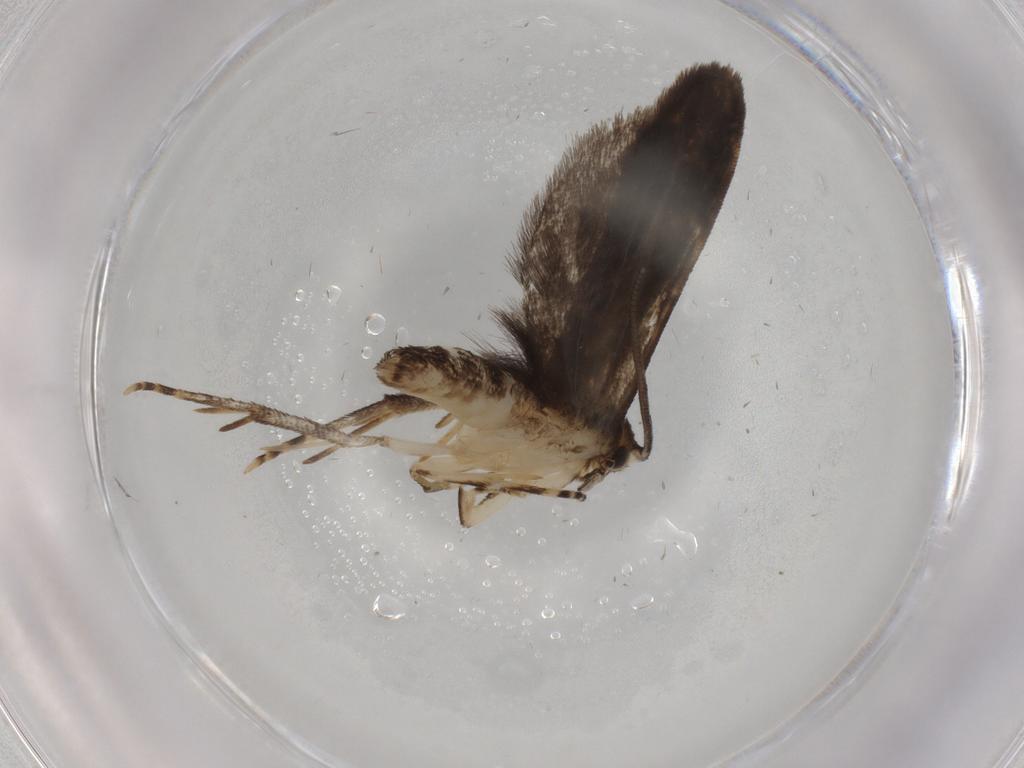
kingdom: Animalia
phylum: Arthropoda
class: Insecta
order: Lepidoptera
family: Dryadaulidae
